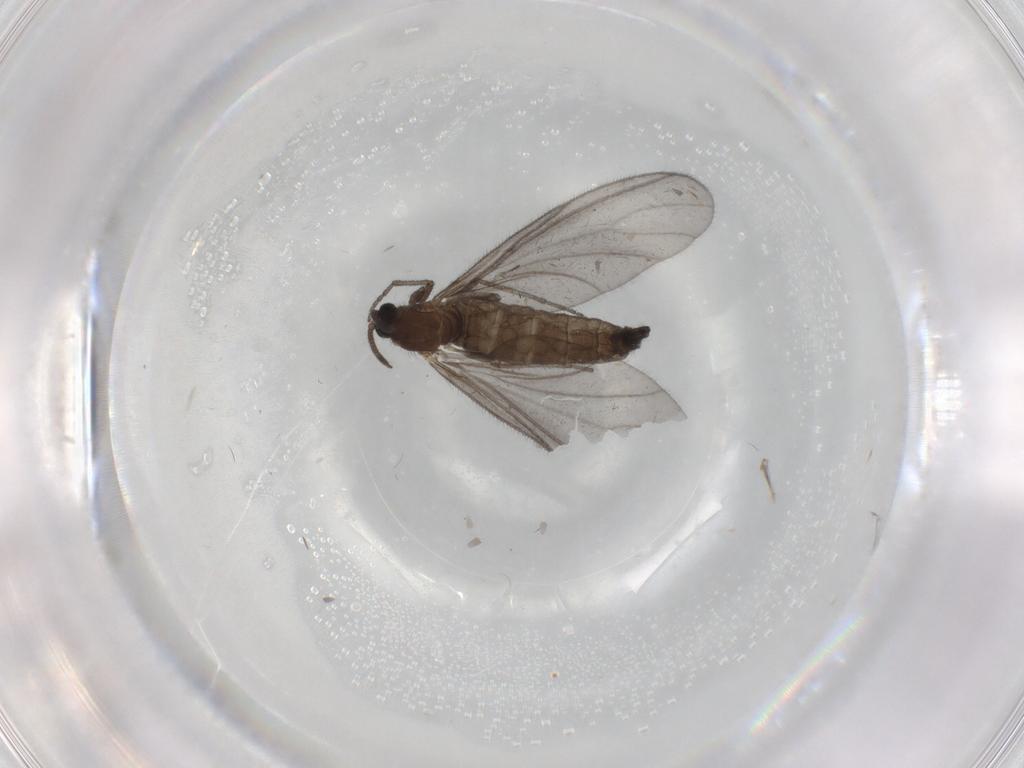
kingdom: Animalia
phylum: Arthropoda
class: Insecta
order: Diptera
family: Sciaridae
